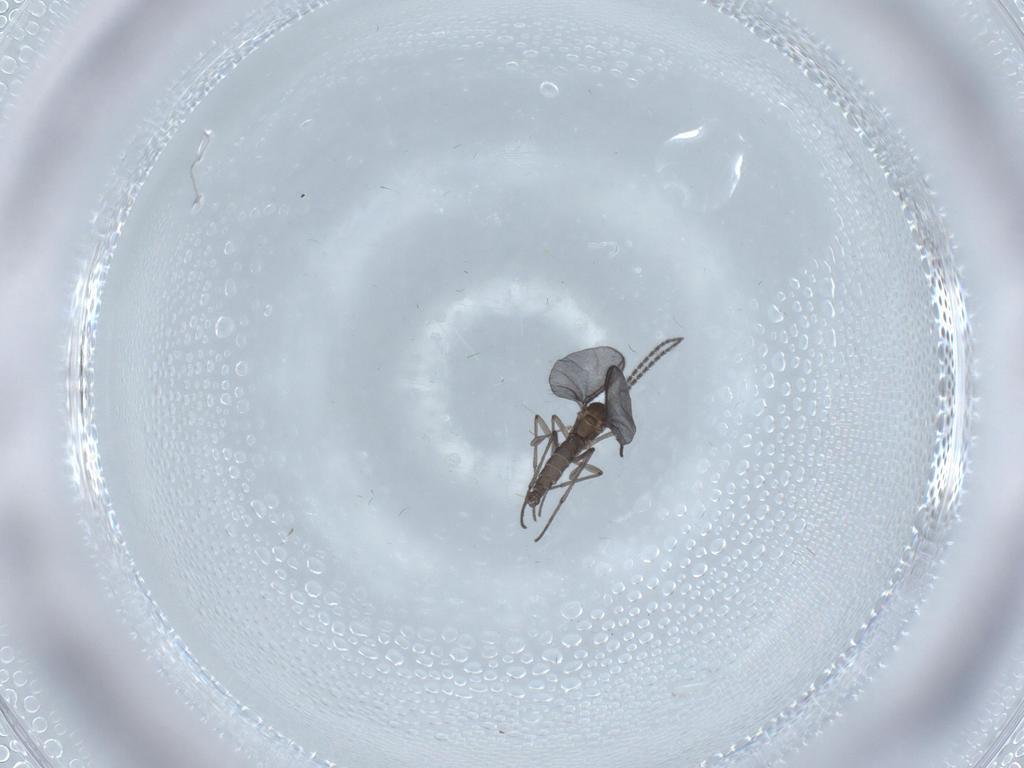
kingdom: Animalia
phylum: Arthropoda
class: Insecta
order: Diptera
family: Sciaridae
